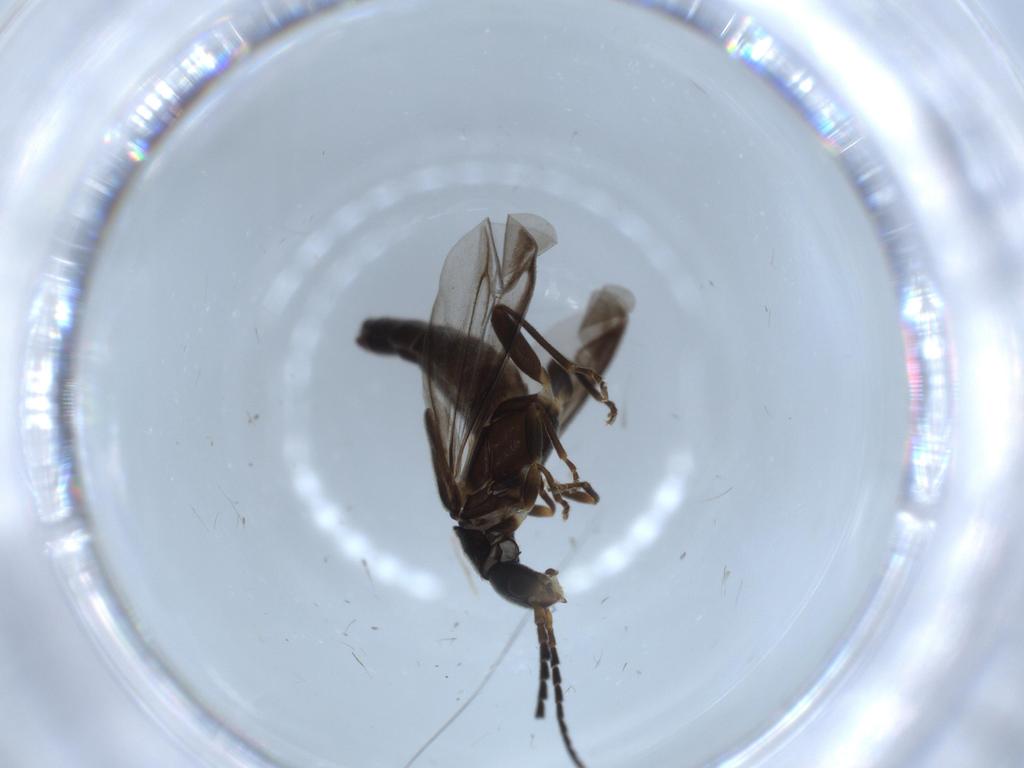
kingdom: Animalia
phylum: Arthropoda
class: Insecta
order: Coleoptera
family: Cantharidae
